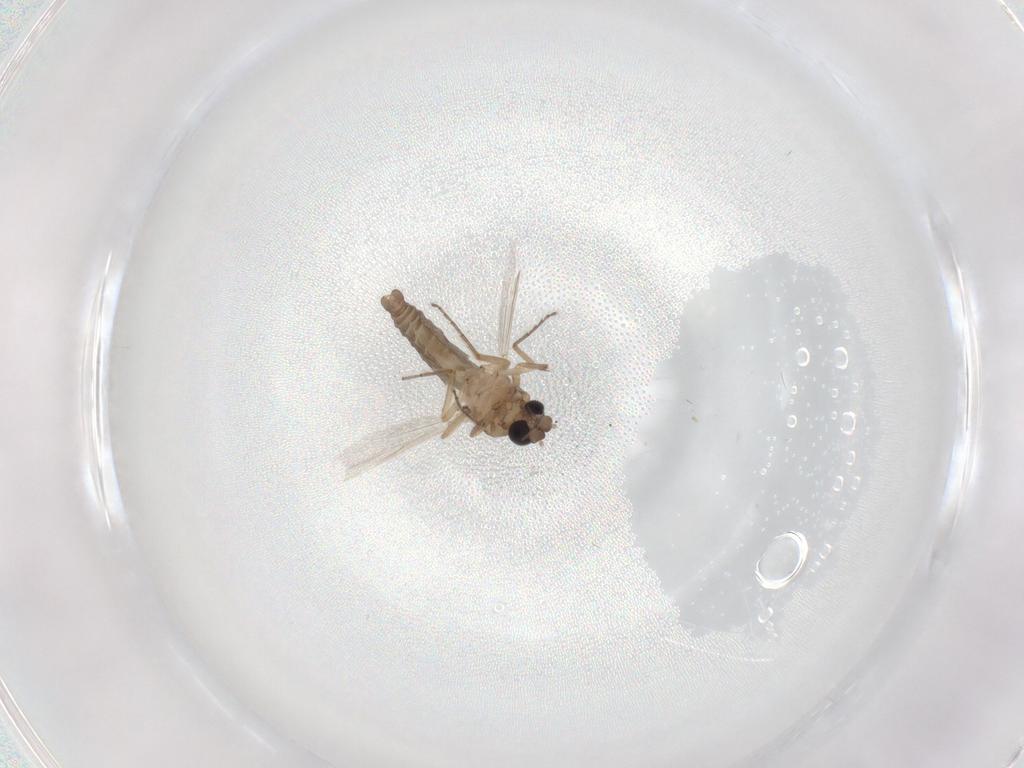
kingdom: Animalia
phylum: Arthropoda
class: Insecta
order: Diptera
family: Ceratopogonidae
